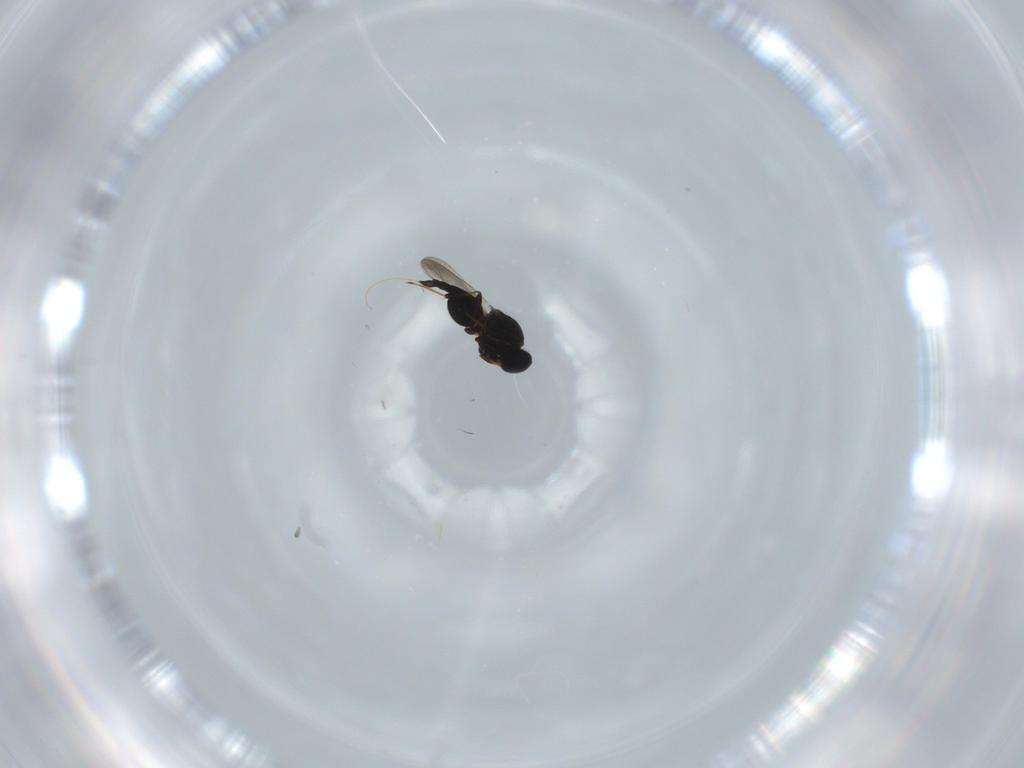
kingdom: Animalia
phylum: Arthropoda
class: Insecta
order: Hymenoptera
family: Platygastridae
